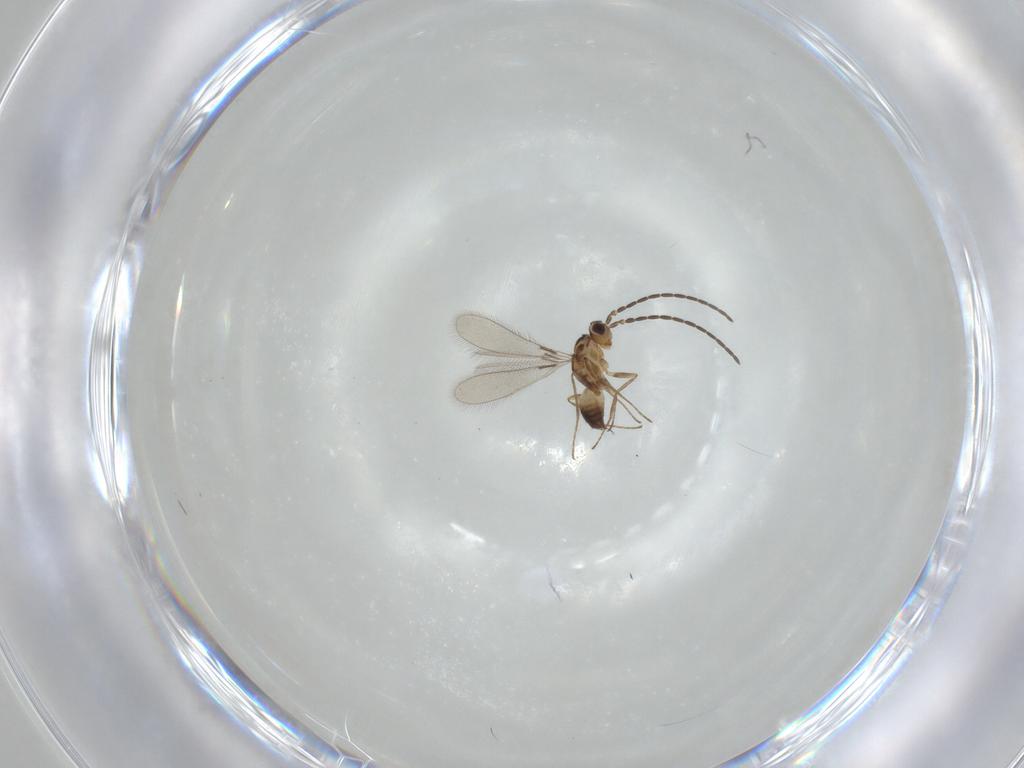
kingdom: Animalia
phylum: Arthropoda
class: Insecta
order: Hymenoptera
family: Mymaridae
